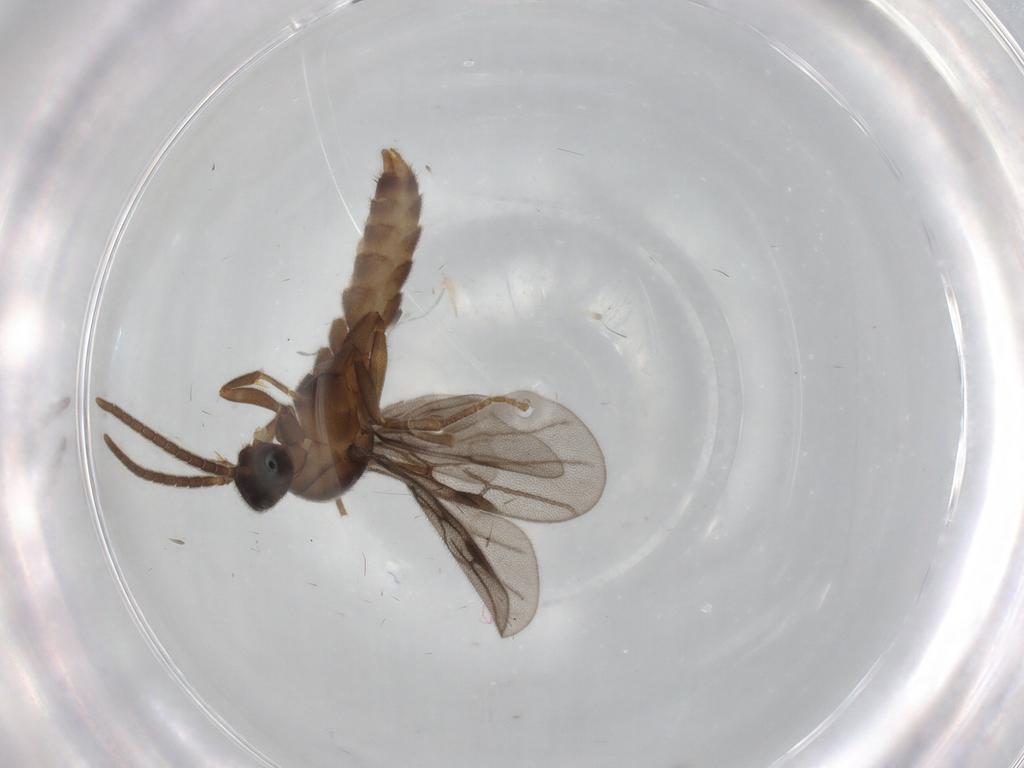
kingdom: Animalia
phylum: Arthropoda
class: Insecta
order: Hymenoptera
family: Formicidae
